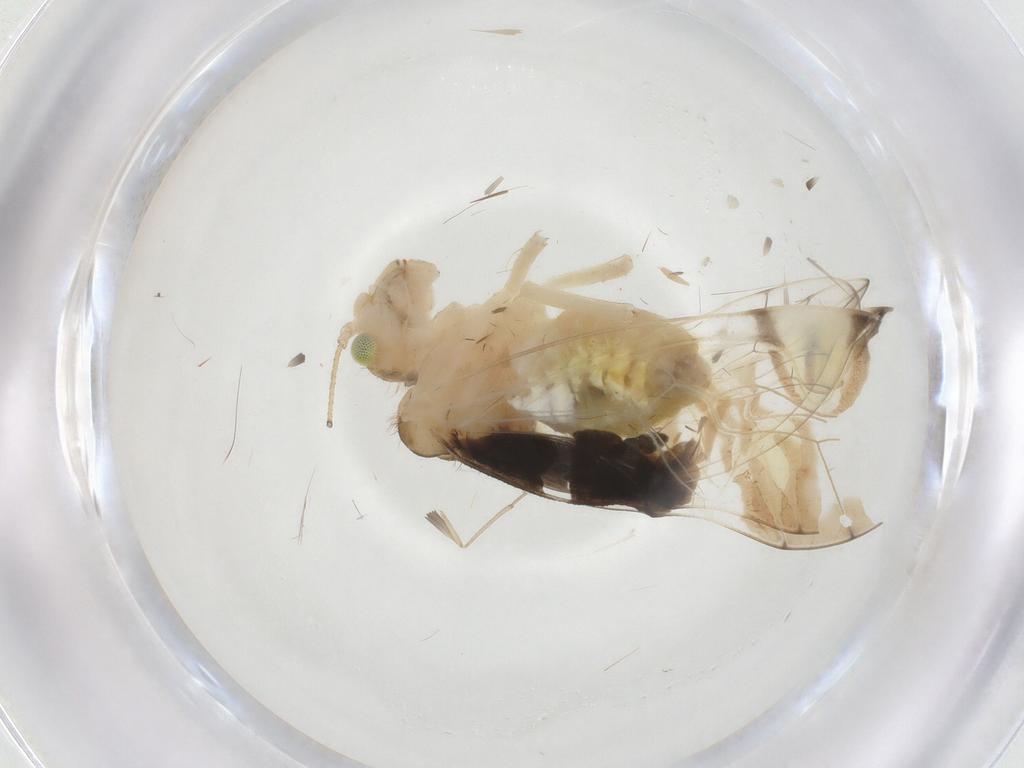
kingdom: Animalia
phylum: Arthropoda
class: Insecta
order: Psocodea
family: Amphipsocidae
